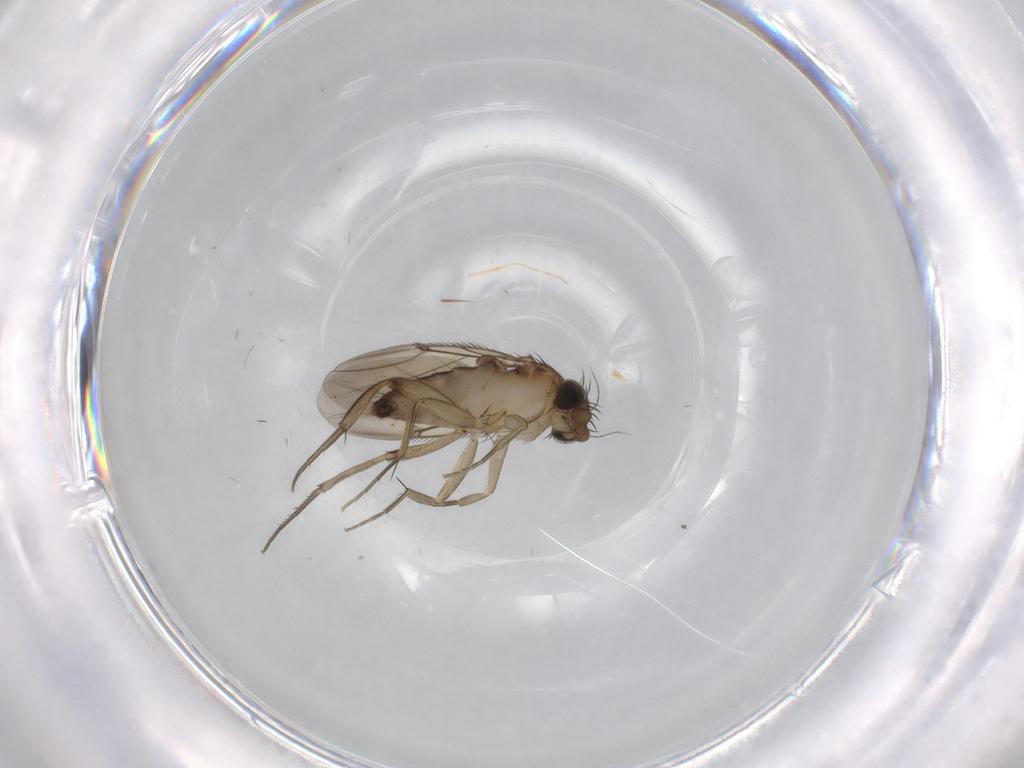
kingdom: Animalia
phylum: Arthropoda
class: Insecta
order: Diptera
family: Phoridae
